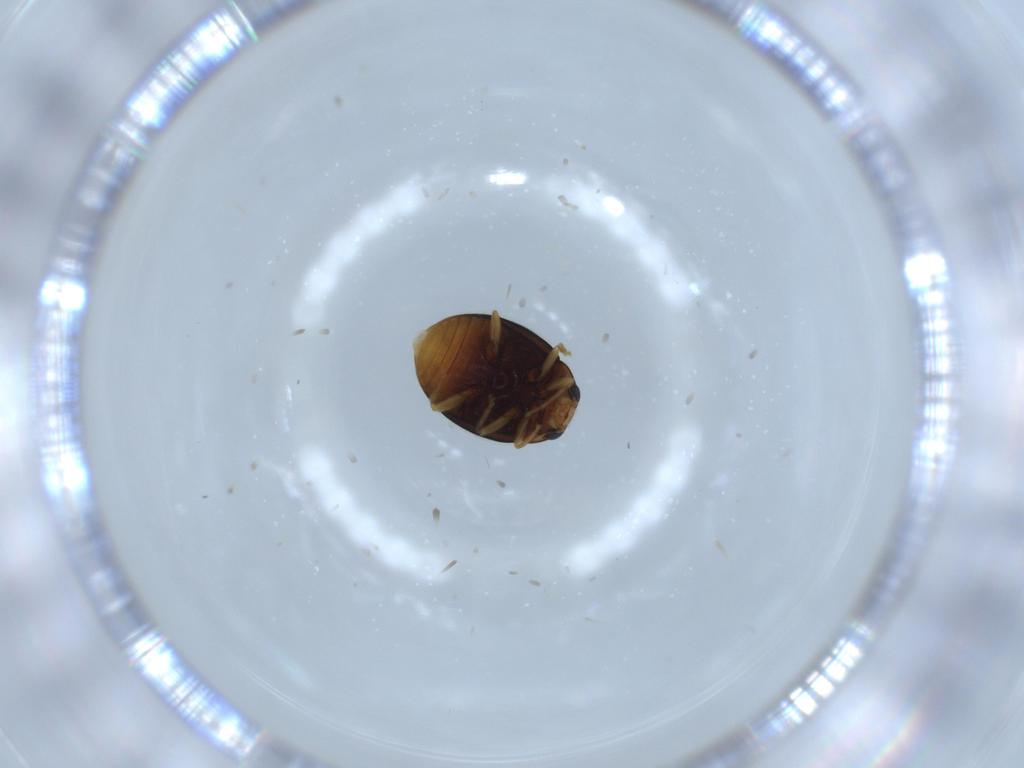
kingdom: Animalia
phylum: Arthropoda
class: Insecta
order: Coleoptera
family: Coccinellidae
